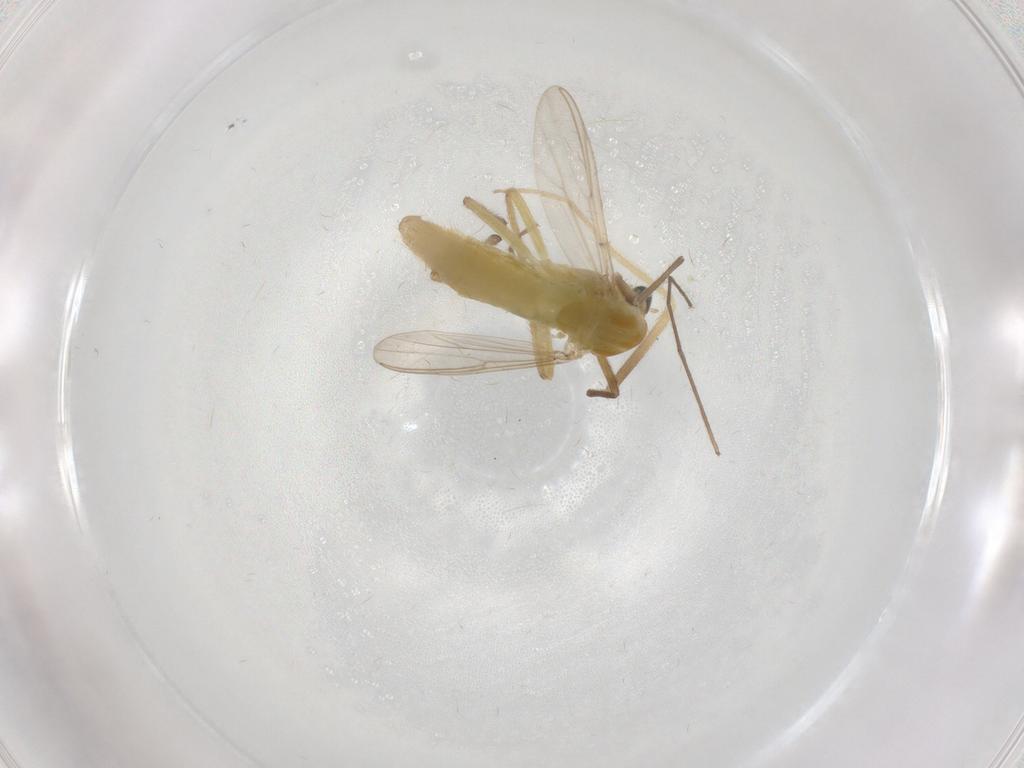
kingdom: Animalia
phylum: Arthropoda
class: Insecta
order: Diptera
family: Chironomidae
